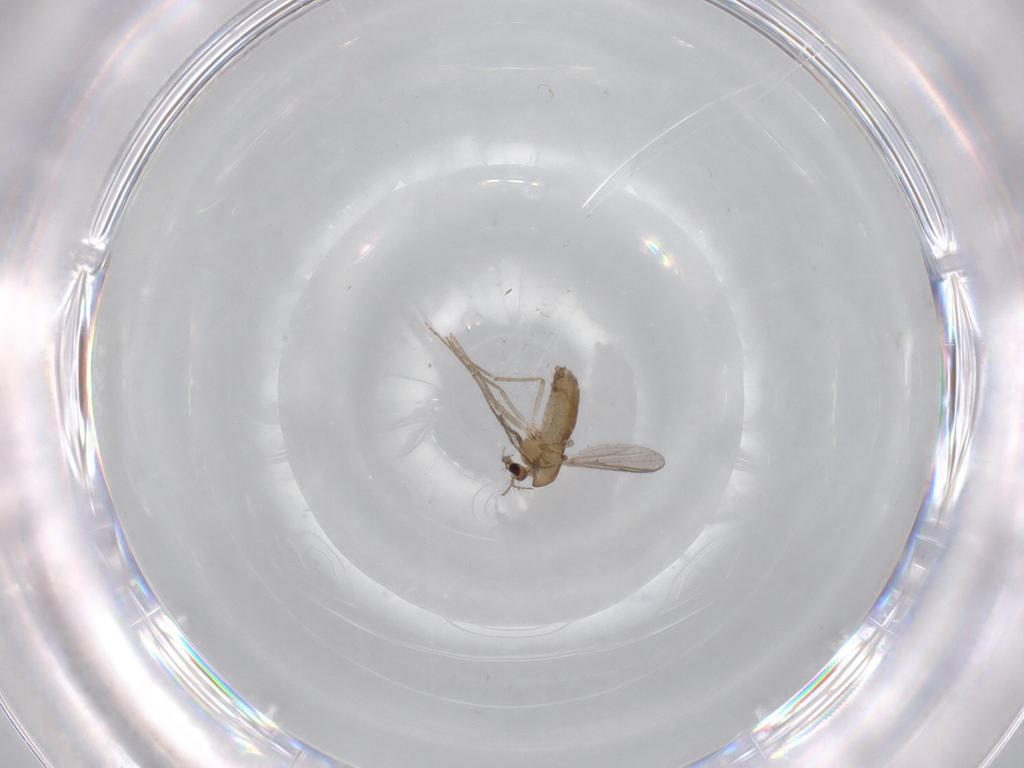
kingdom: Animalia
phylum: Arthropoda
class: Insecta
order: Diptera
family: Chironomidae
